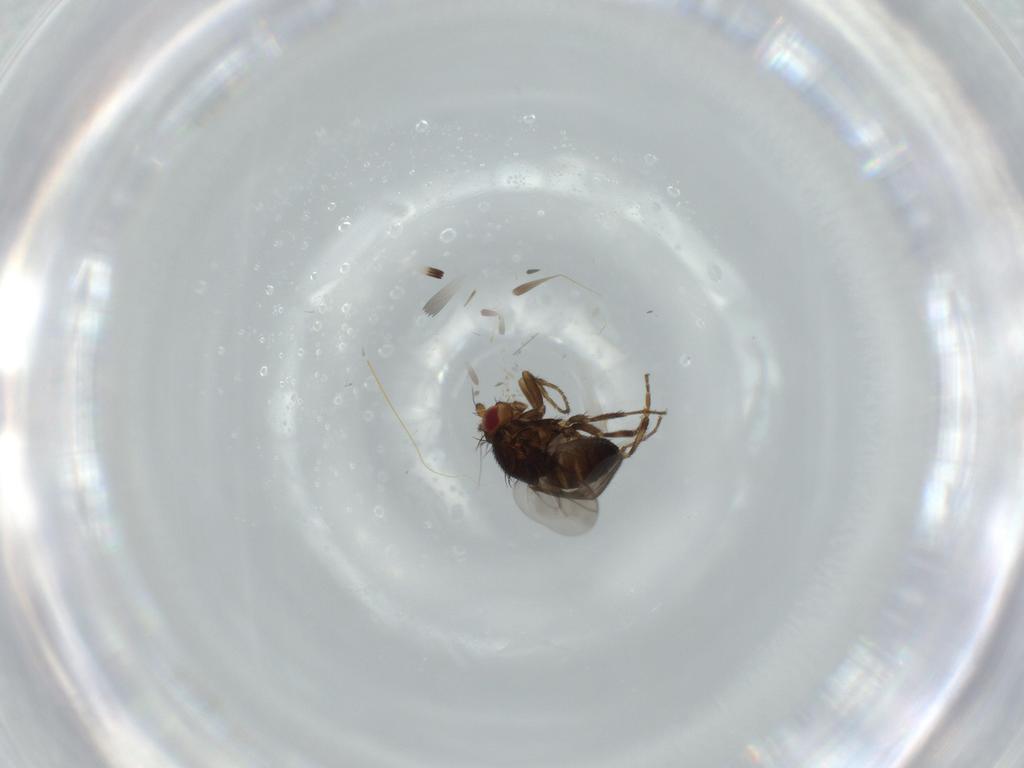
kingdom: Animalia
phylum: Arthropoda
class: Insecta
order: Diptera
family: Sphaeroceridae
